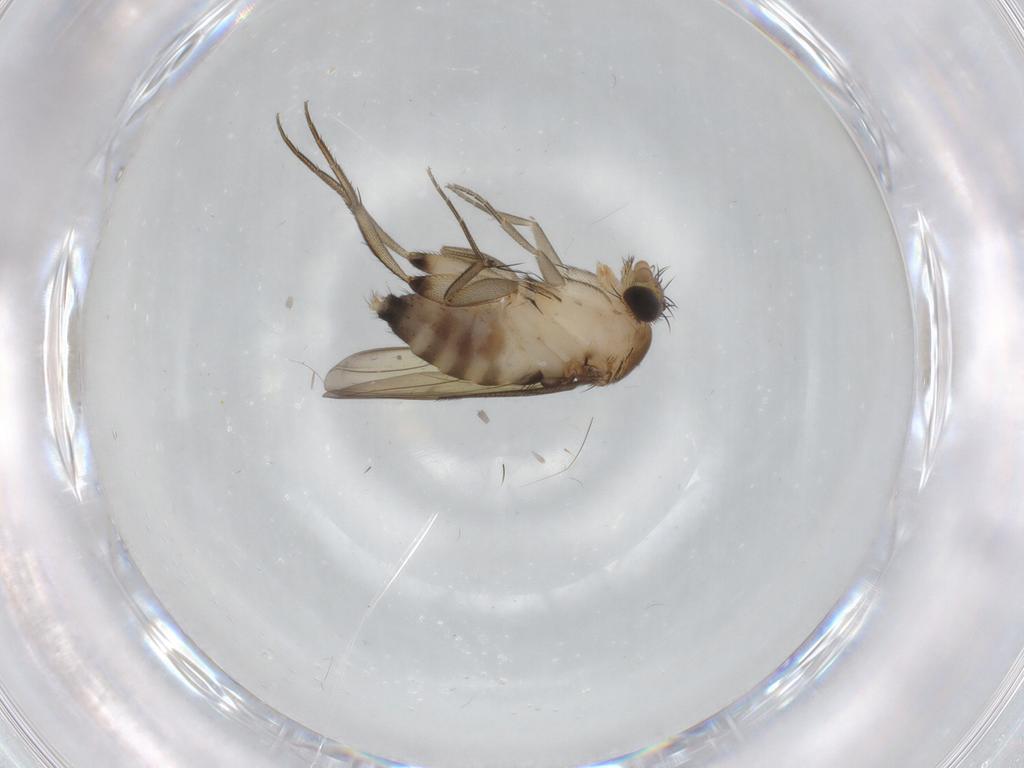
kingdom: Animalia
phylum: Arthropoda
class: Insecta
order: Diptera
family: Phoridae
